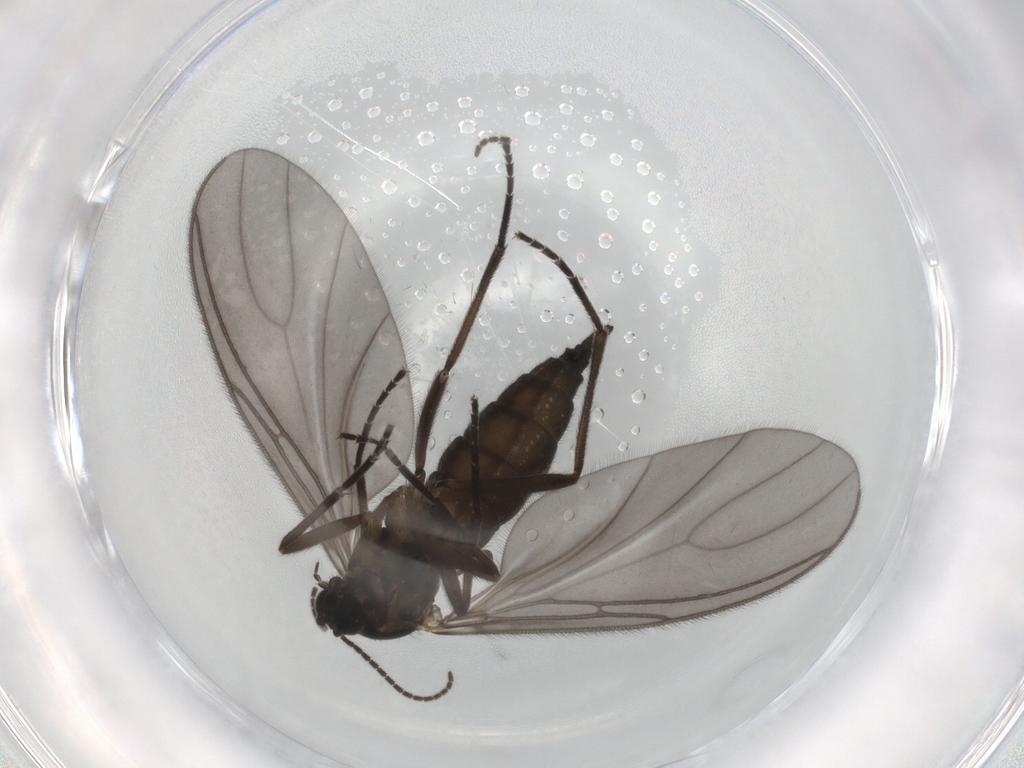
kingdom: Animalia
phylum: Arthropoda
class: Insecta
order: Diptera
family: Sciaridae
